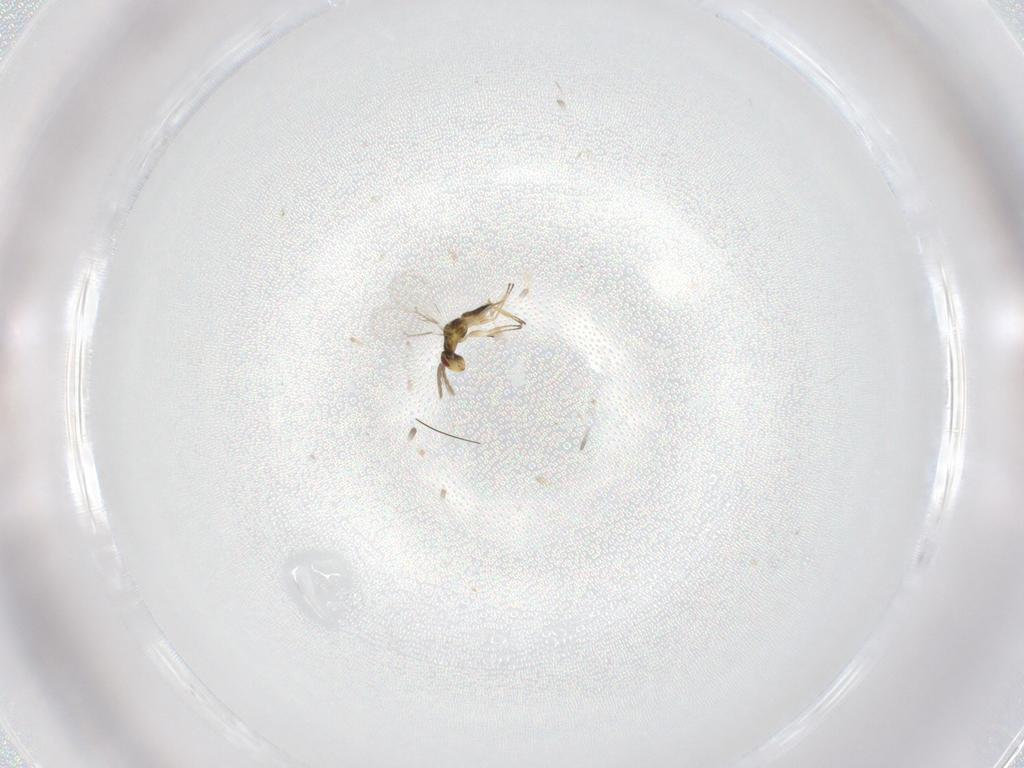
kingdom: Animalia
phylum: Arthropoda
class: Insecta
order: Hymenoptera
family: Eulophidae
